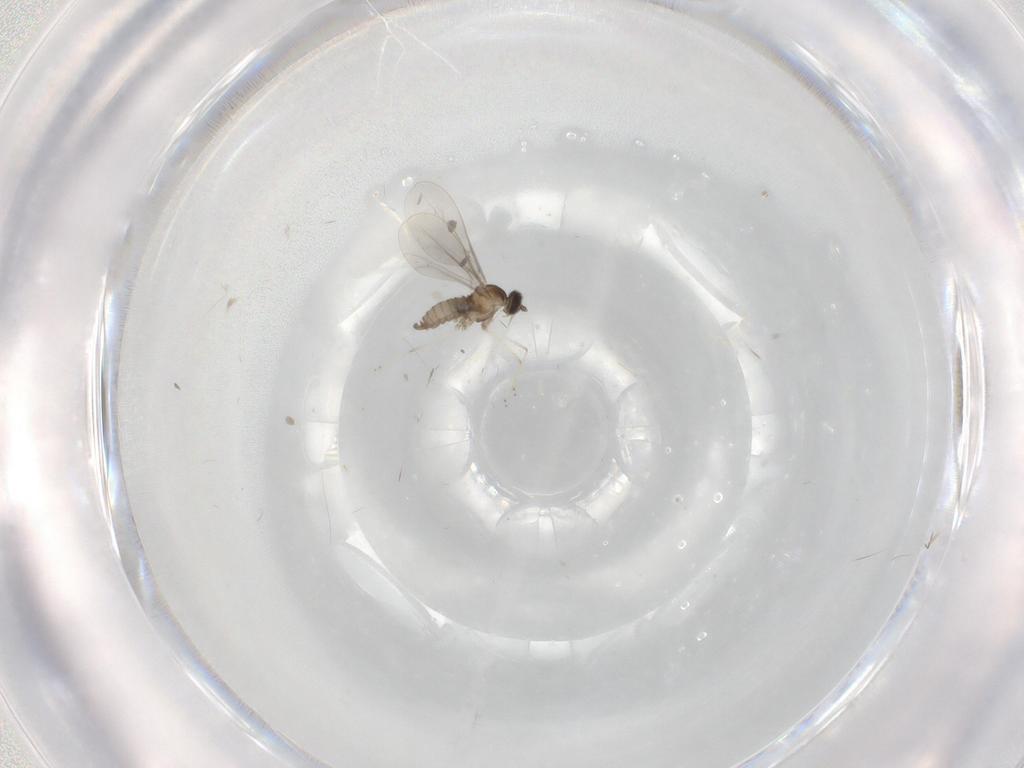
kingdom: Animalia
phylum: Arthropoda
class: Insecta
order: Diptera
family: Cecidomyiidae
